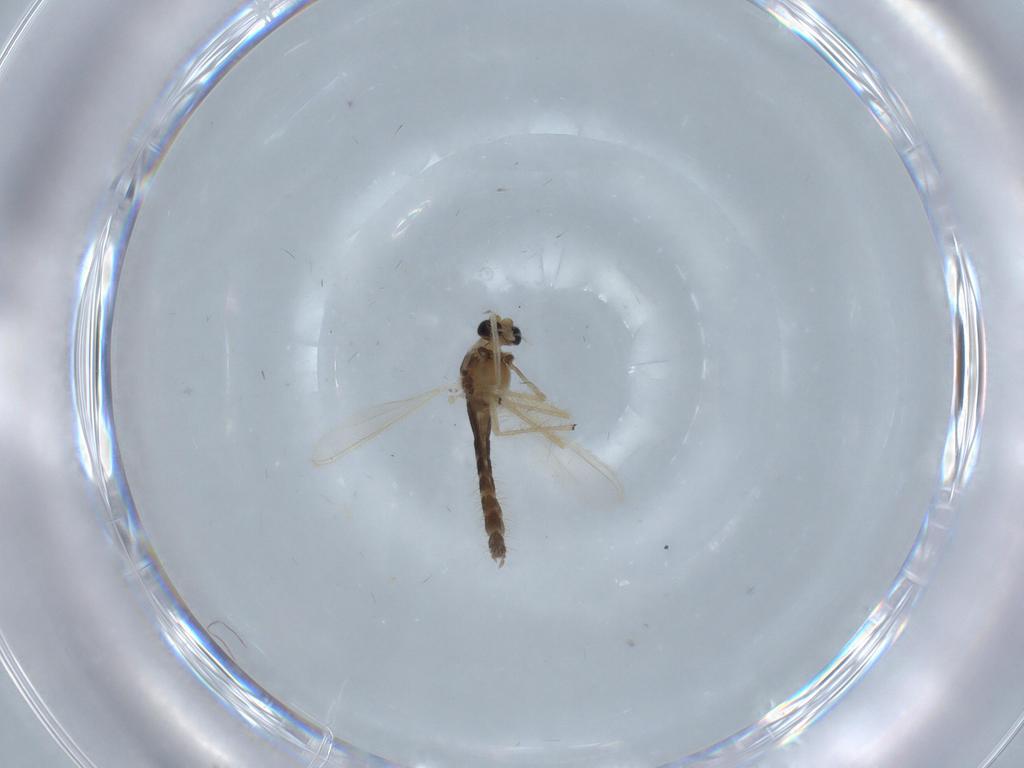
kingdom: Animalia
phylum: Arthropoda
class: Insecta
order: Diptera
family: Chironomidae
